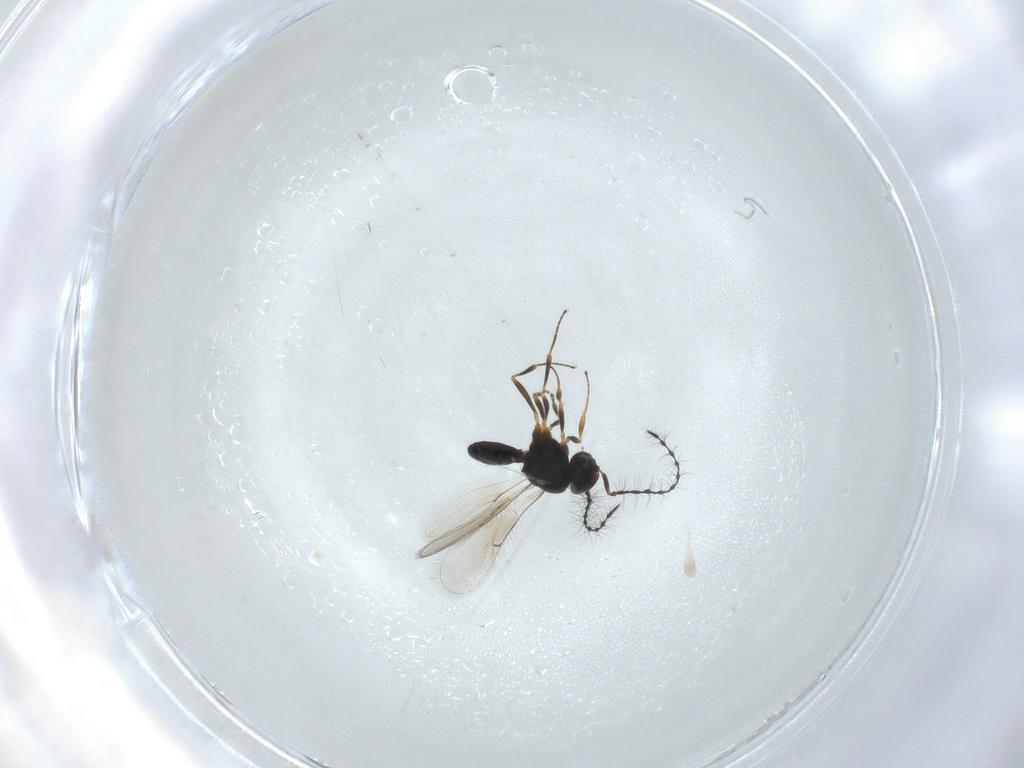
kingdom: Animalia
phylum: Arthropoda
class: Insecta
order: Hymenoptera
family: Scelionidae
